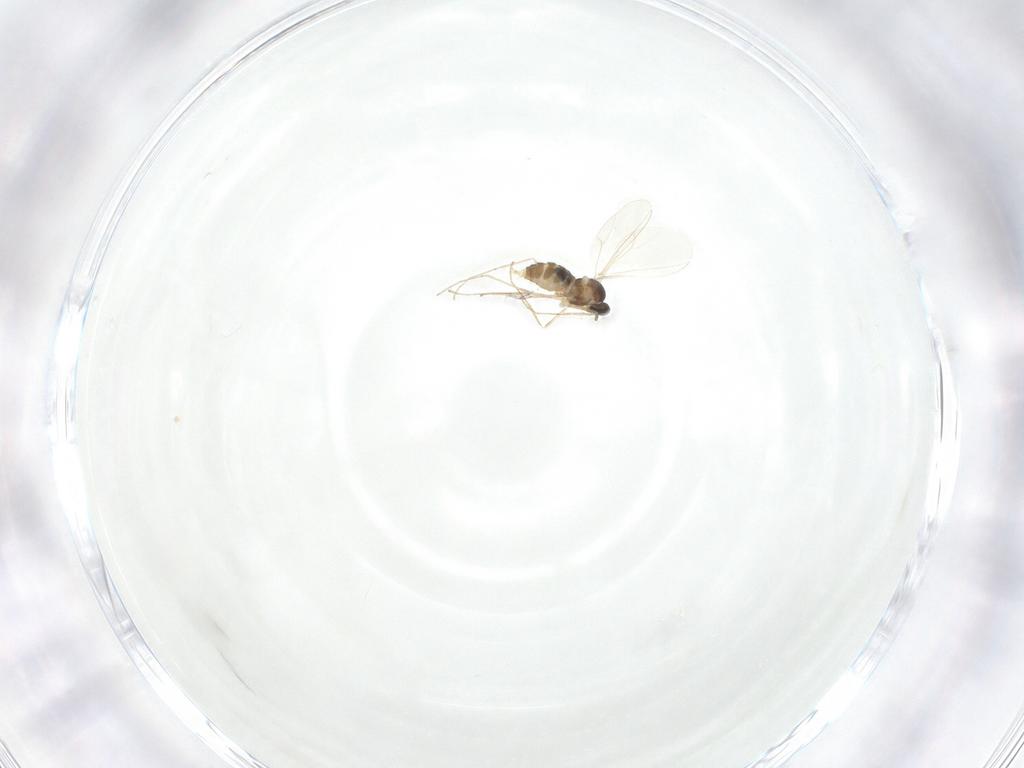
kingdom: Animalia
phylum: Arthropoda
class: Insecta
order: Diptera
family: Cecidomyiidae
